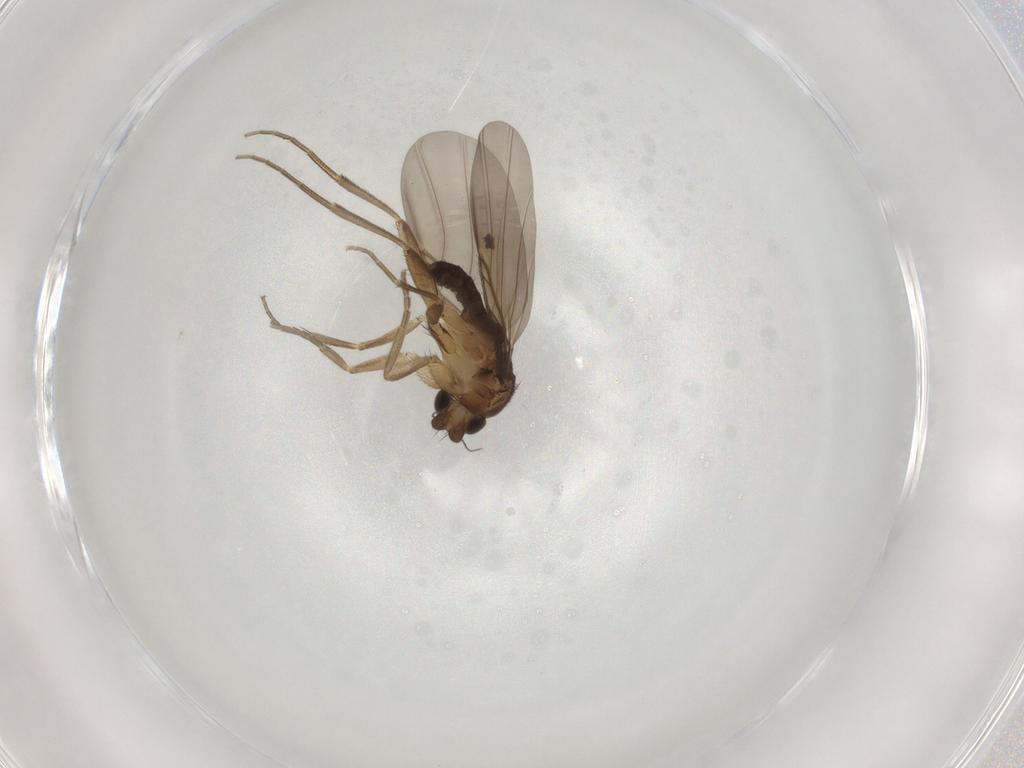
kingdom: Animalia
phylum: Arthropoda
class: Insecta
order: Diptera
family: Phoridae
